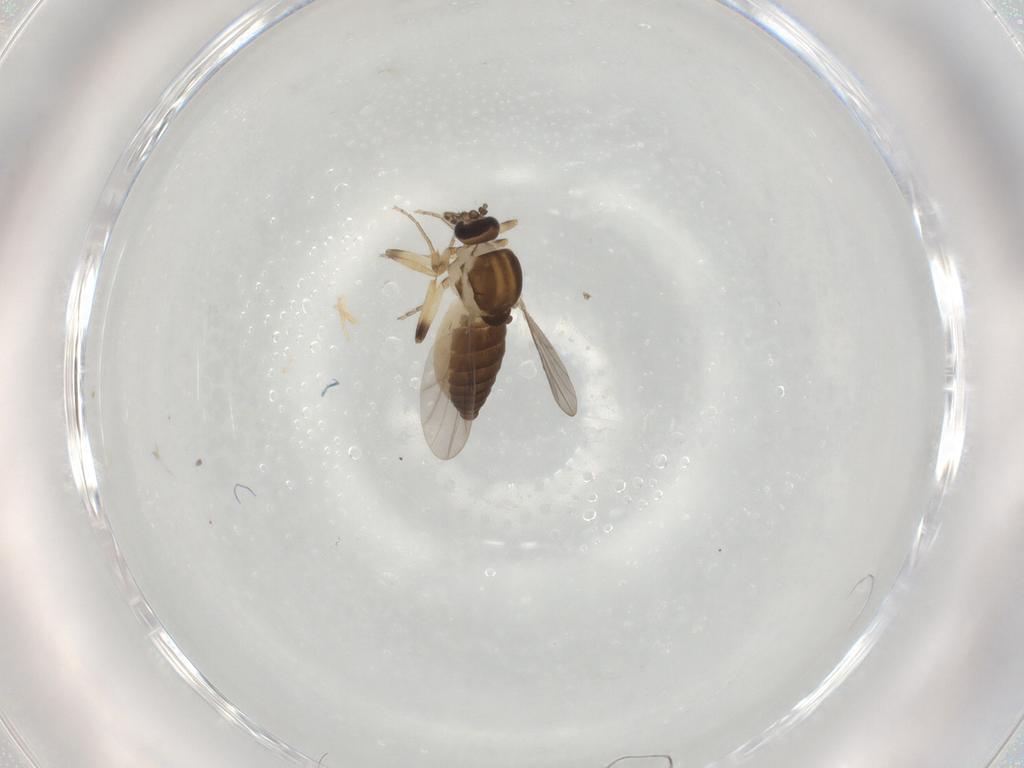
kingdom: Animalia
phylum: Arthropoda
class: Insecta
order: Diptera
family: Ceratopogonidae
